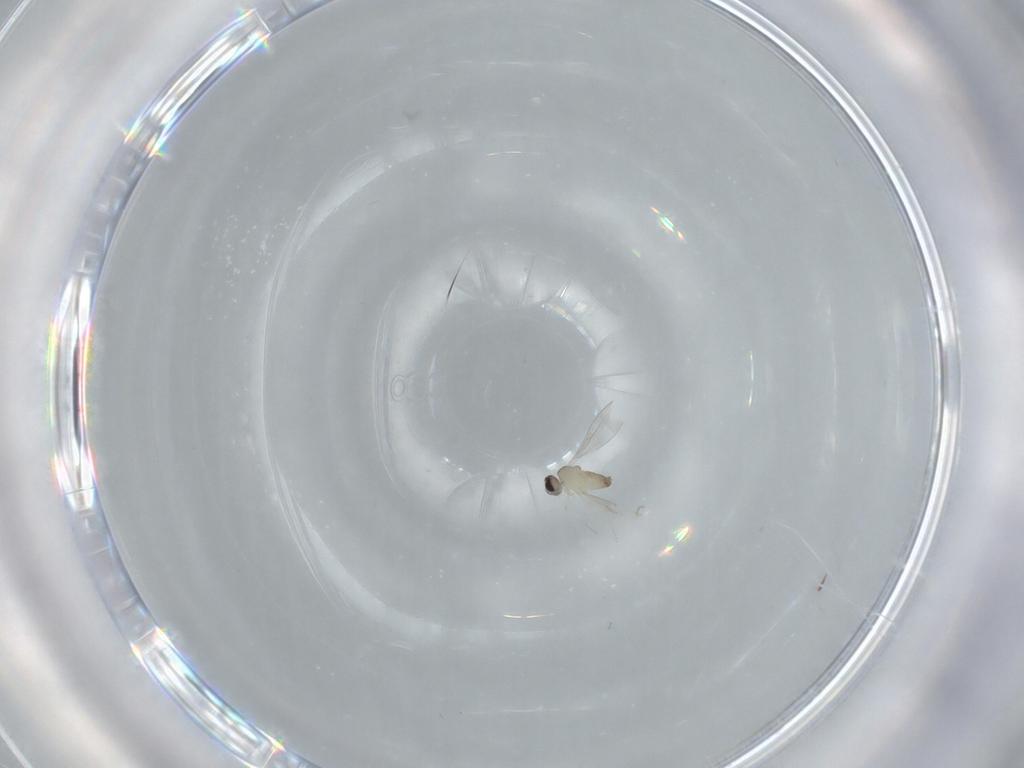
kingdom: Animalia
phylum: Arthropoda
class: Insecta
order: Diptera
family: Cecidomyiidae
